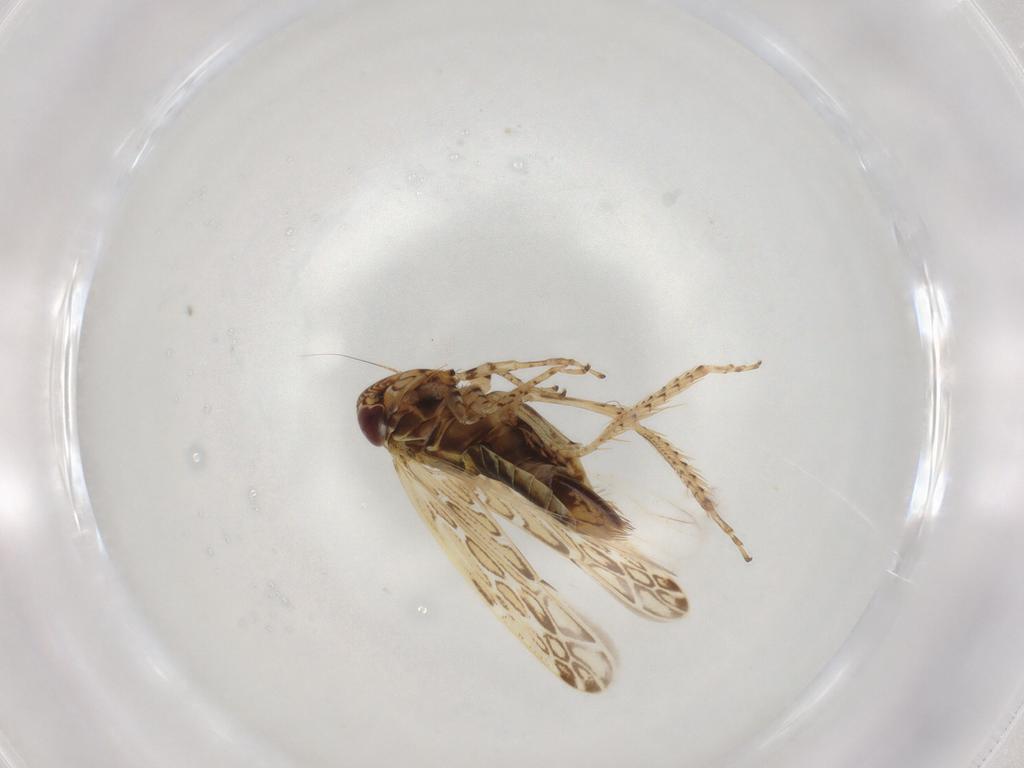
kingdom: Animalia
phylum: Arthropoda
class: Insecta
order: Hemiptera
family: Cicadellidae
